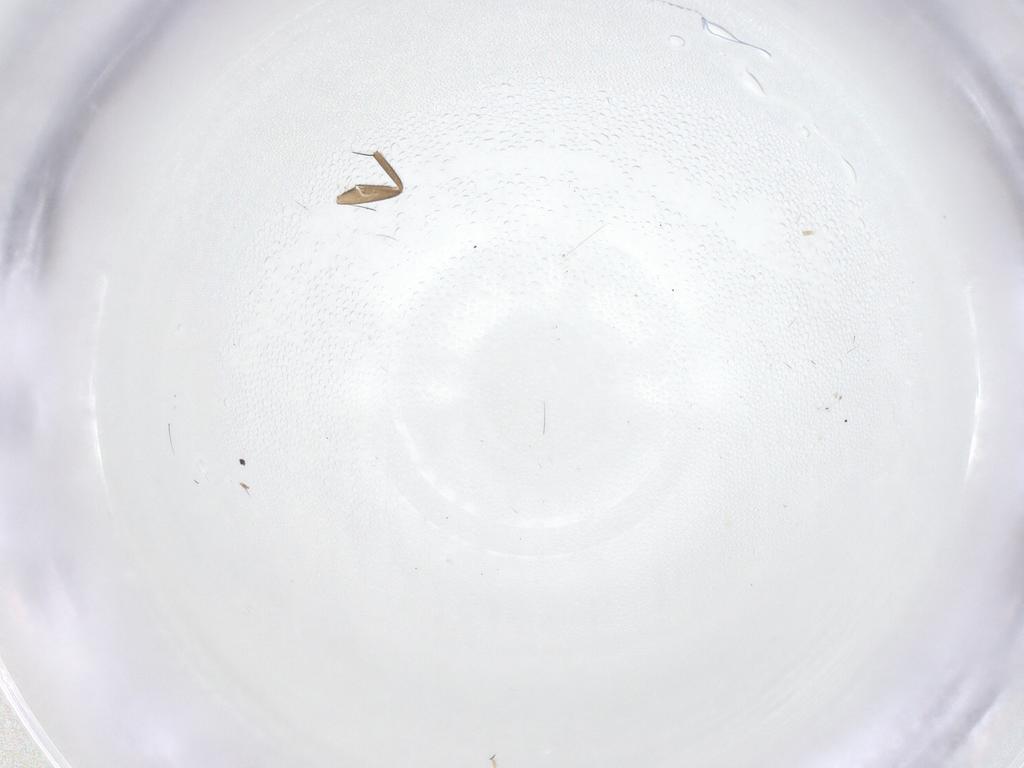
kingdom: Animalia
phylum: Arthropoda
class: Insecta
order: Diptera
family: Phoridae
